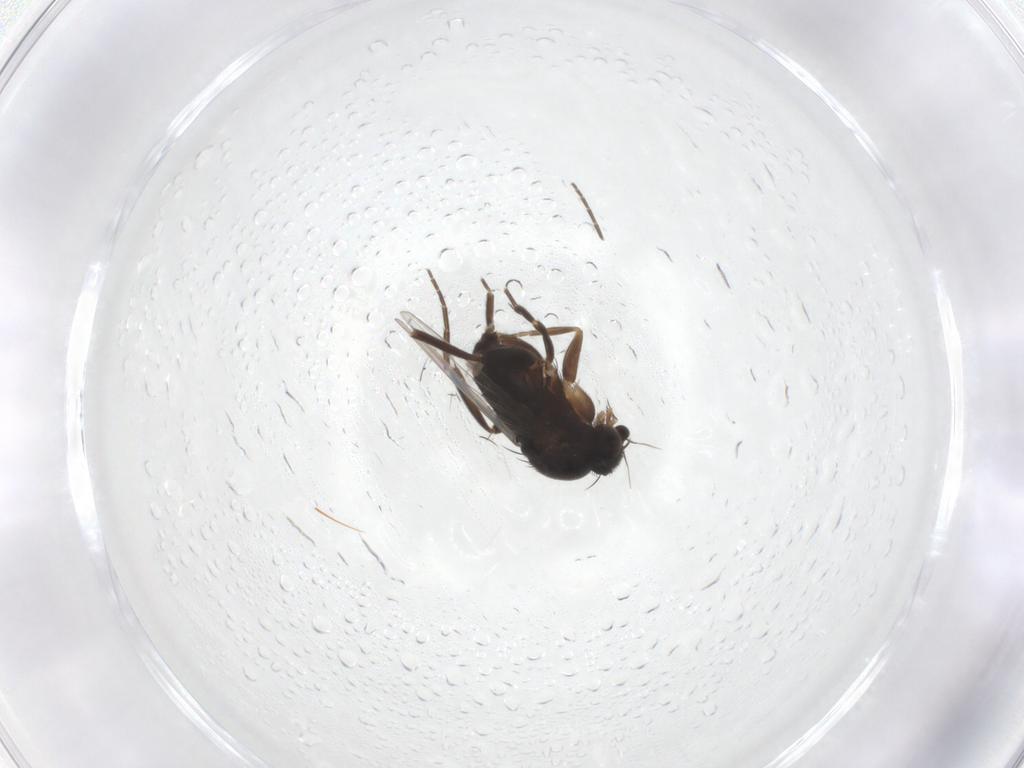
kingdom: Animalia
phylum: Arthropoda
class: Insecta
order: Diptera
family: Phoridae
